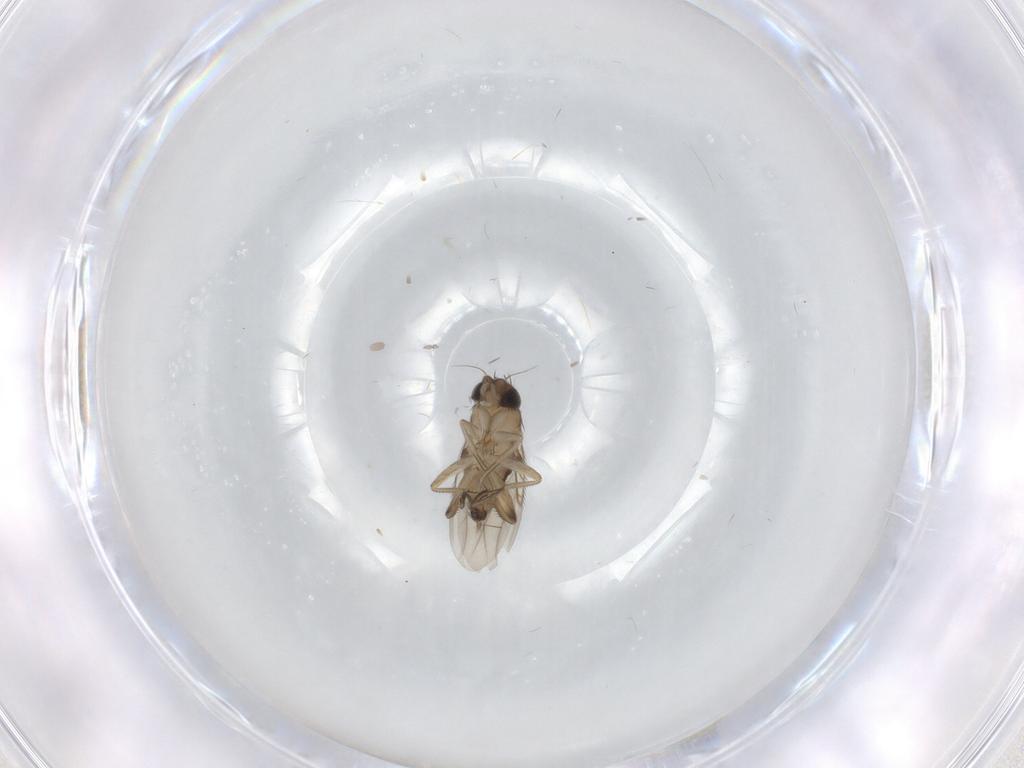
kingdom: Animalia
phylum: Arthropoda
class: Insecta
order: Diptera
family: Phoridae
